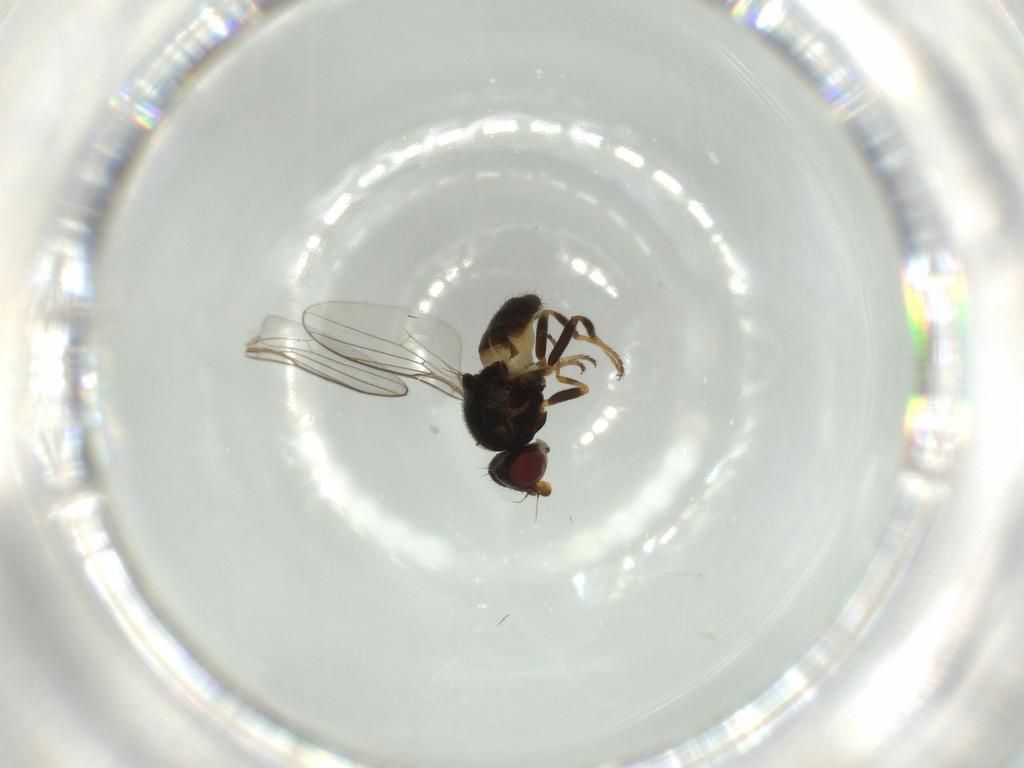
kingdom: Animalia
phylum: Arthropoda
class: Insecta
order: Diptera
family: Chloropidae
